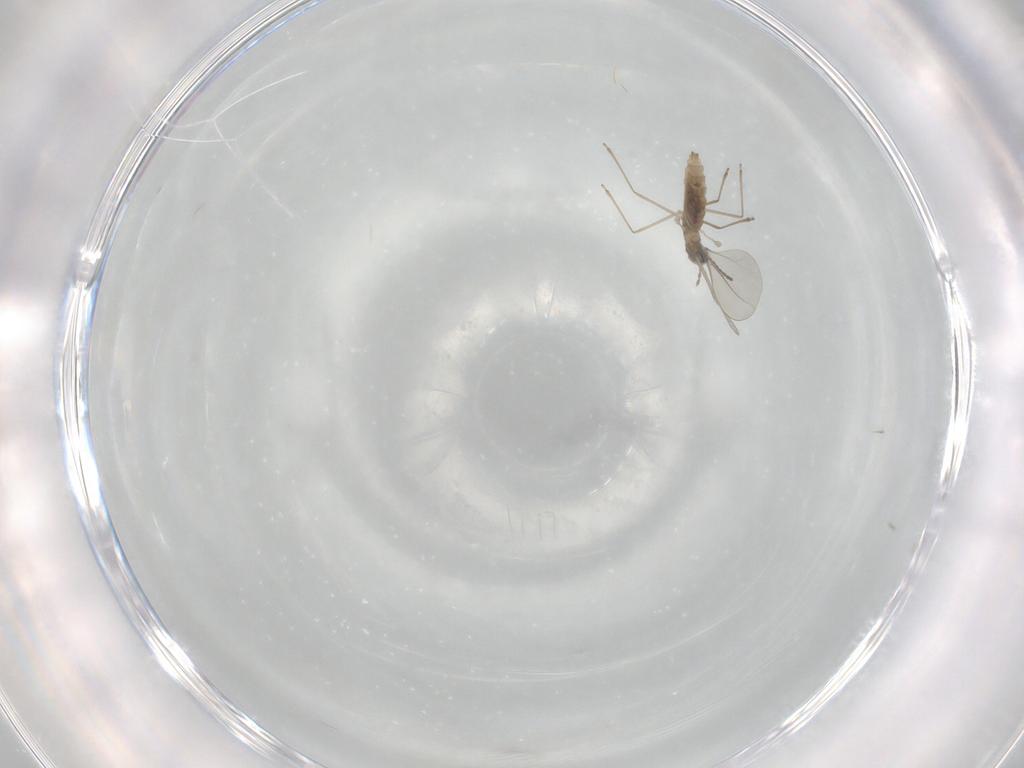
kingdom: Animalia
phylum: Arthropoda
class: Insecta
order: Diptera
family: Cecidomyiidae
